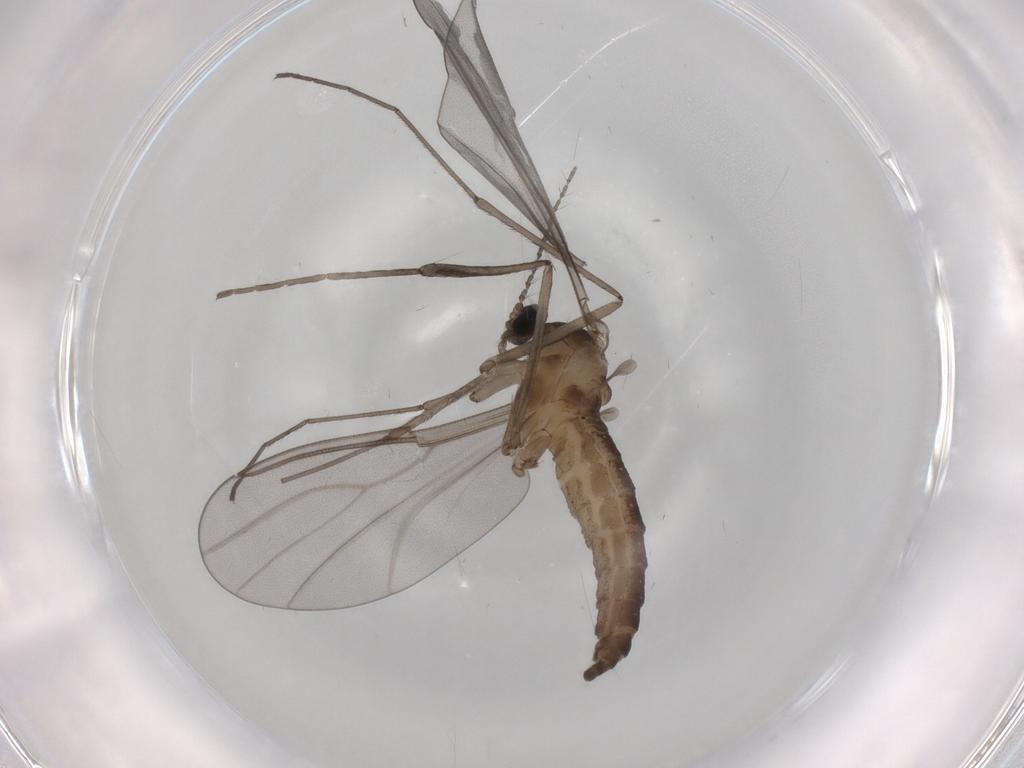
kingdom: Animalia
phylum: Arthropoda
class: Insecta
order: Diptera
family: Cecidomyiidae
